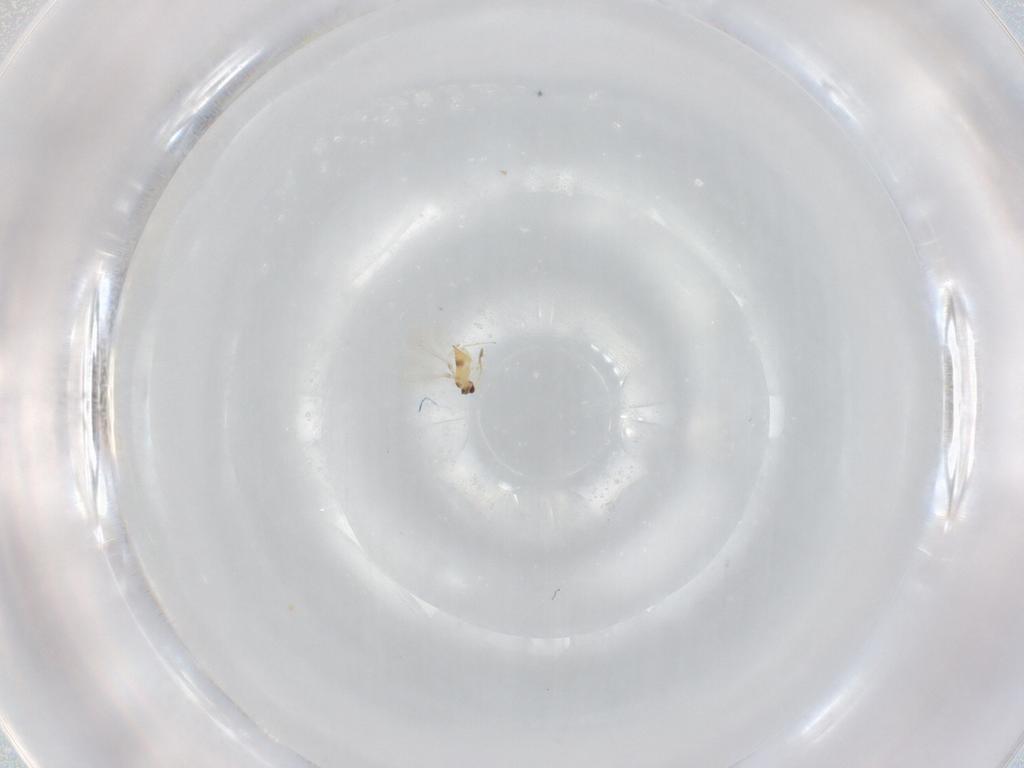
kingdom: Animalia
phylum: Arthropoda
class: Insecta
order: Hymenoptera
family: Mymaridae
